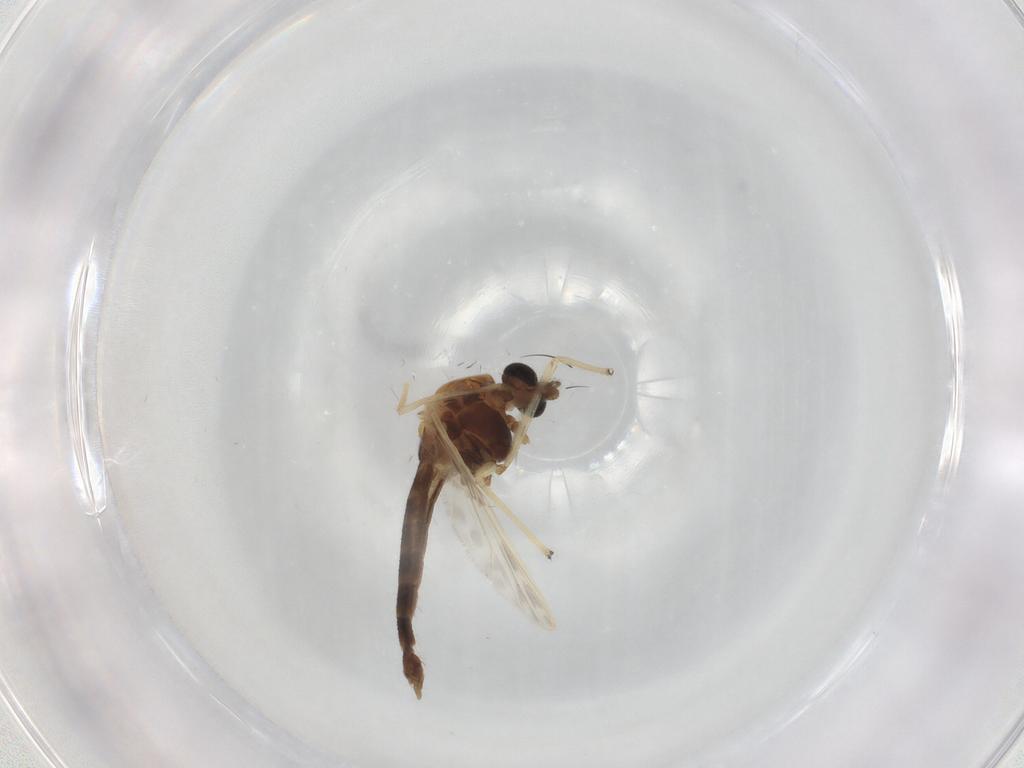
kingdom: Animalia
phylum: Arthropoda
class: Insecta
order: Diptera
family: Chironomidae
